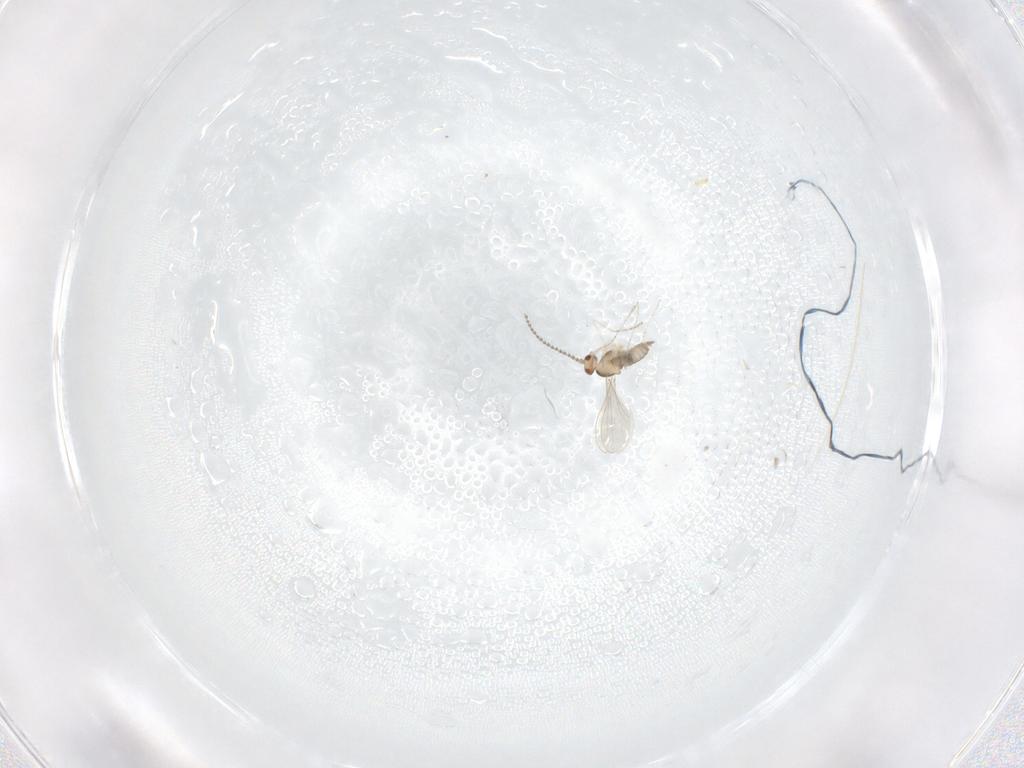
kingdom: Animalia
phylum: Arthropoda
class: Insecta
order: Diptera
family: Cecidomyiidae
